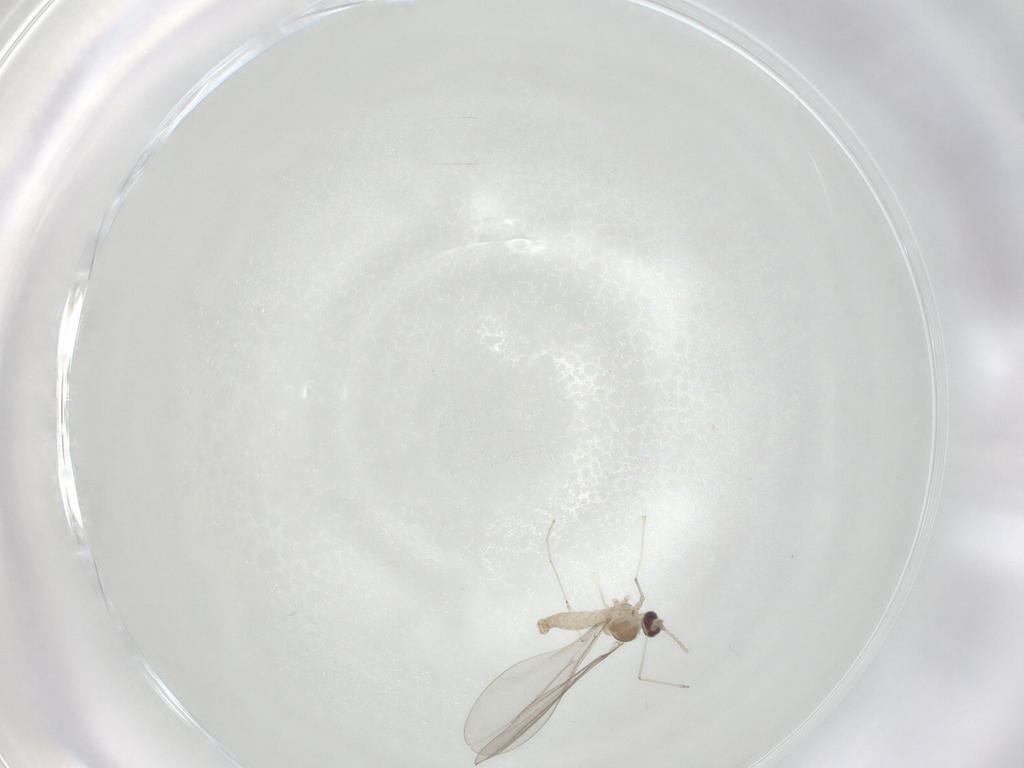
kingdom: Animalia
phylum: Arthropoda
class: Insecta
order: Diptera
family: Cecidomyiidae
